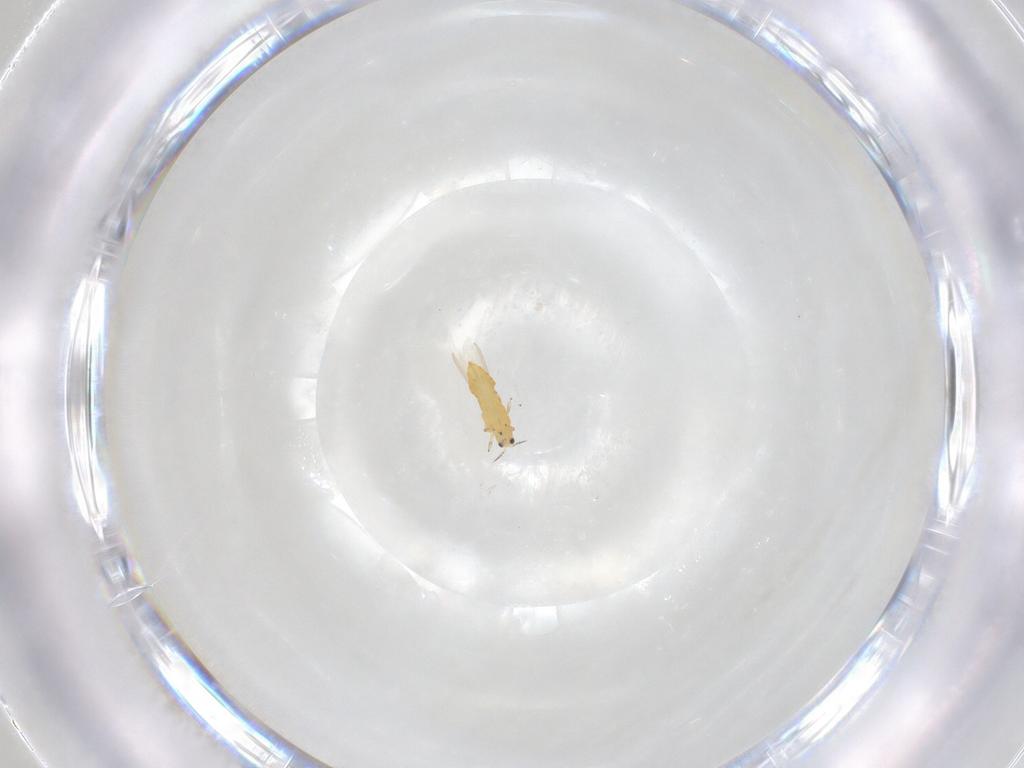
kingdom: Animalia
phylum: Arthropoda
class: Insecta
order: Thysanoptera
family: Thripidae
